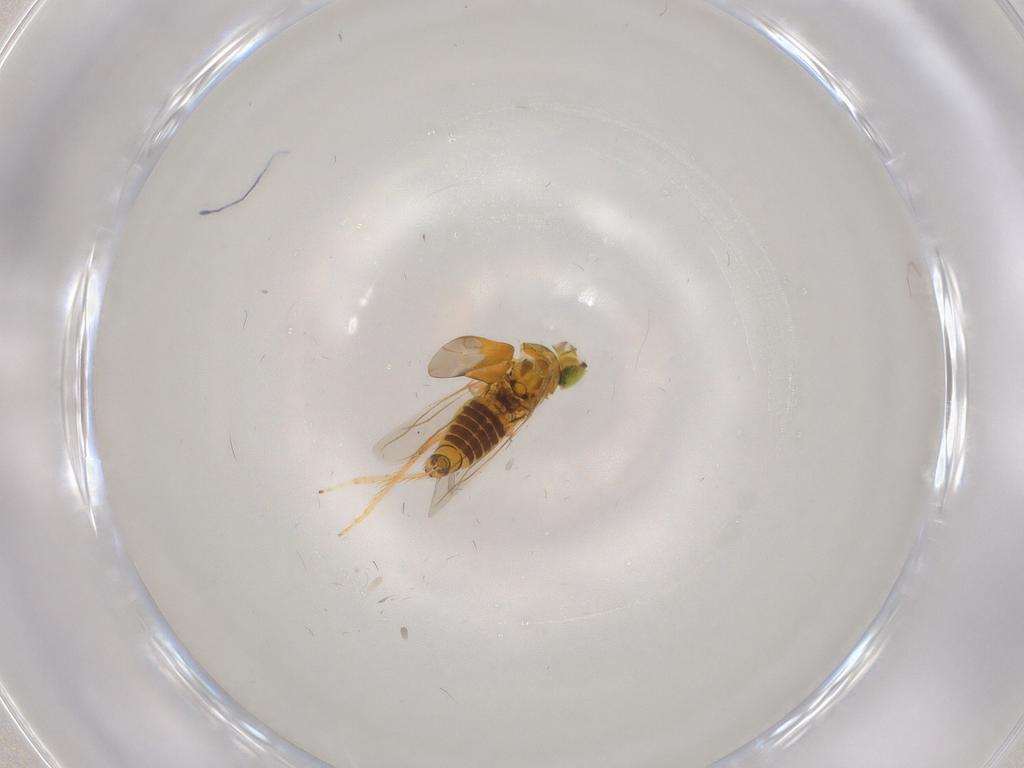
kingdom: Animalia
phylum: Arthropoda
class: Insecta
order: Hemiptera
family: Cicadellidae
